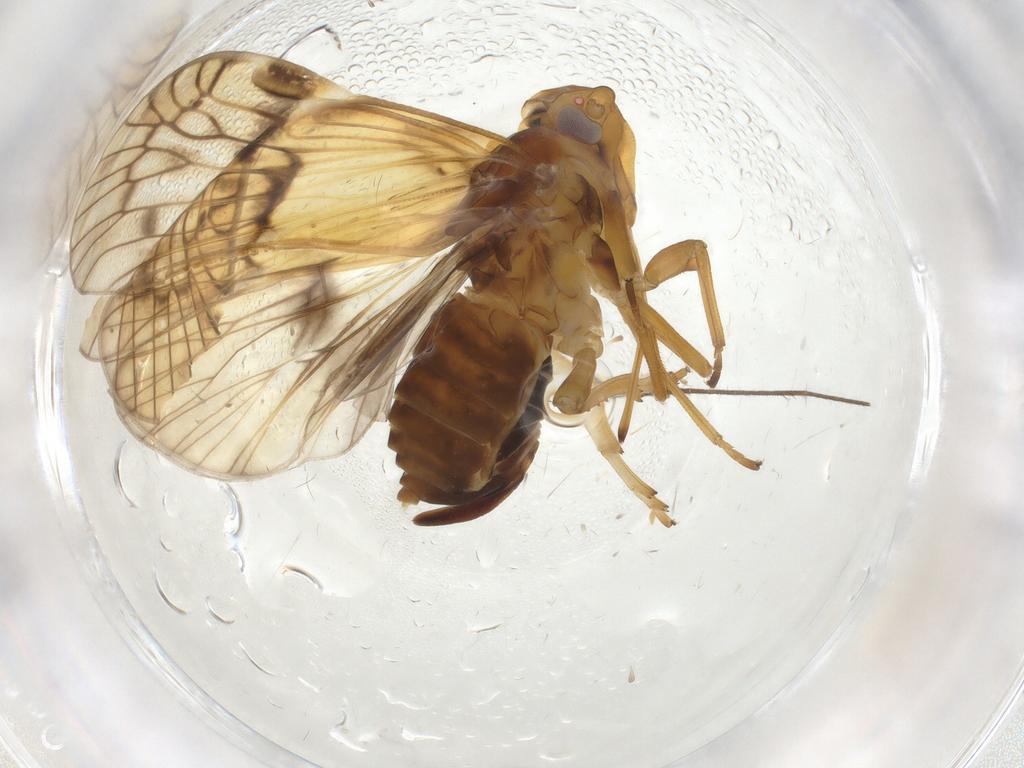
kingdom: Animalia
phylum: Arthropoda
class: Insecta
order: Hemiptera
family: Cixiidae
